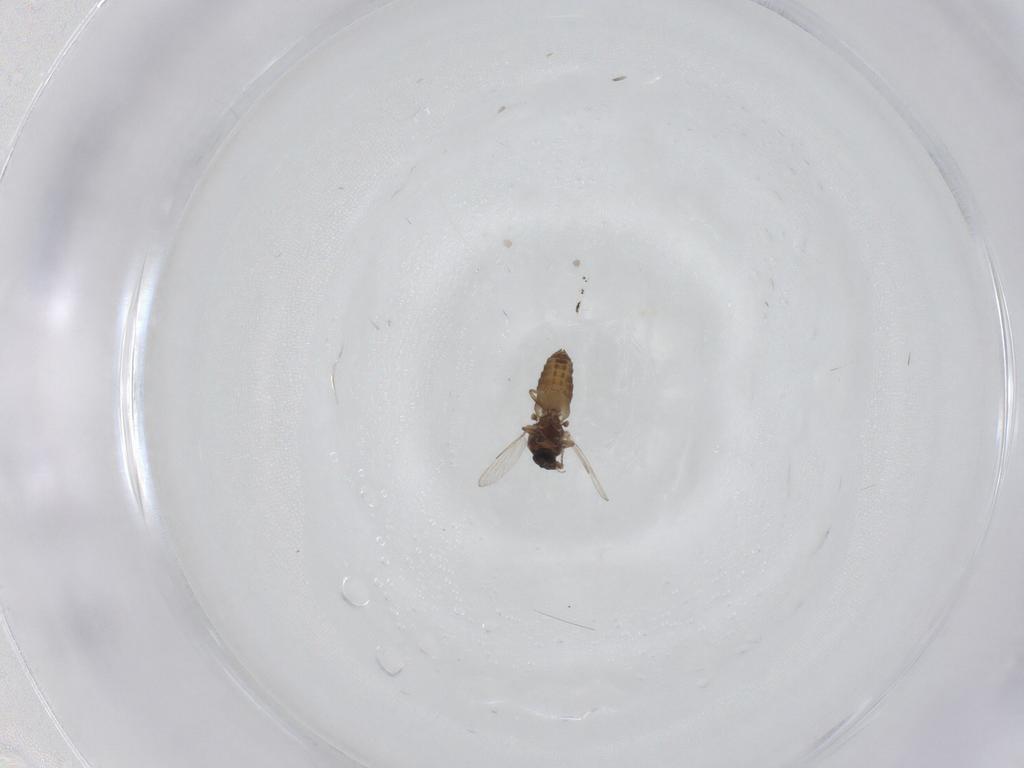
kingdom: Animalia
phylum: Arthropoda
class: Insecta
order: Diptera
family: Ceratopogonidae
